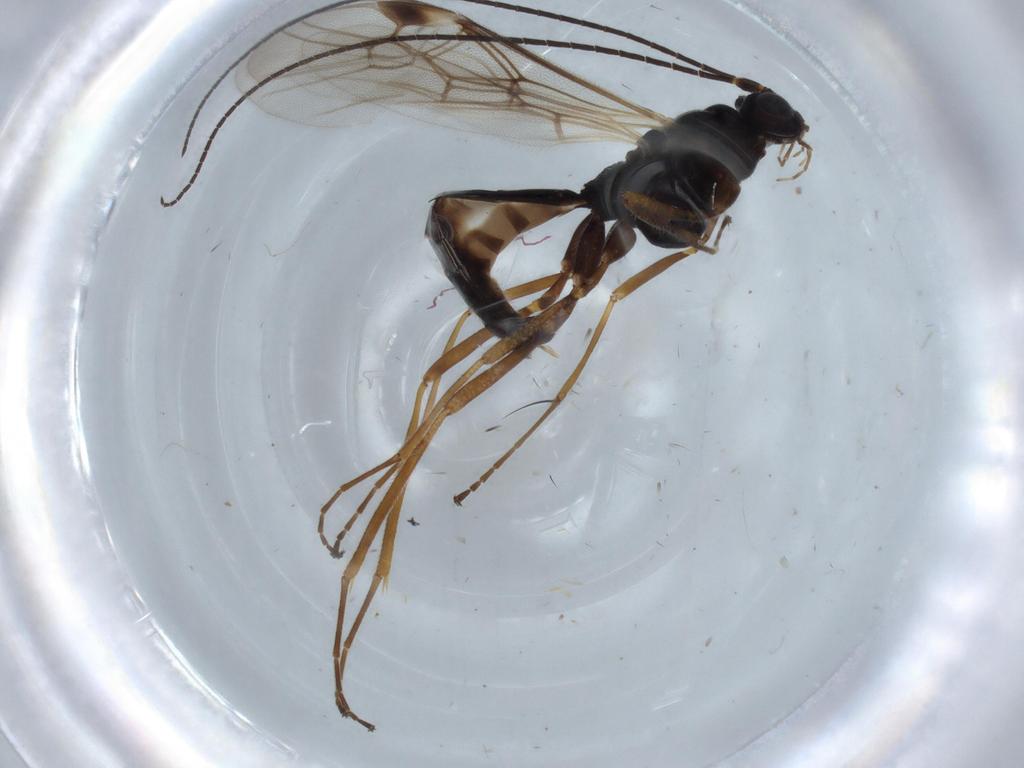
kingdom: Animalia
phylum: Arthropoda
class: Insecta
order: Hymenoptera
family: Braconidae
